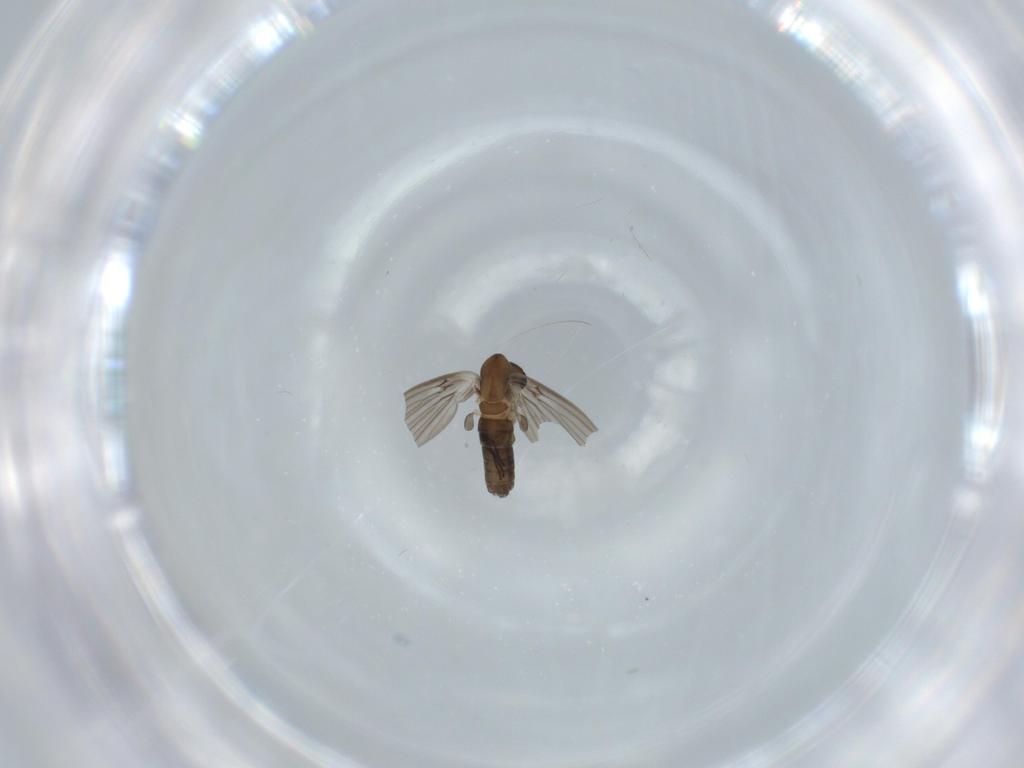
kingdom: Animalia
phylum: Arthropoda
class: Insecta
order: Diptera
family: Psychodidae
